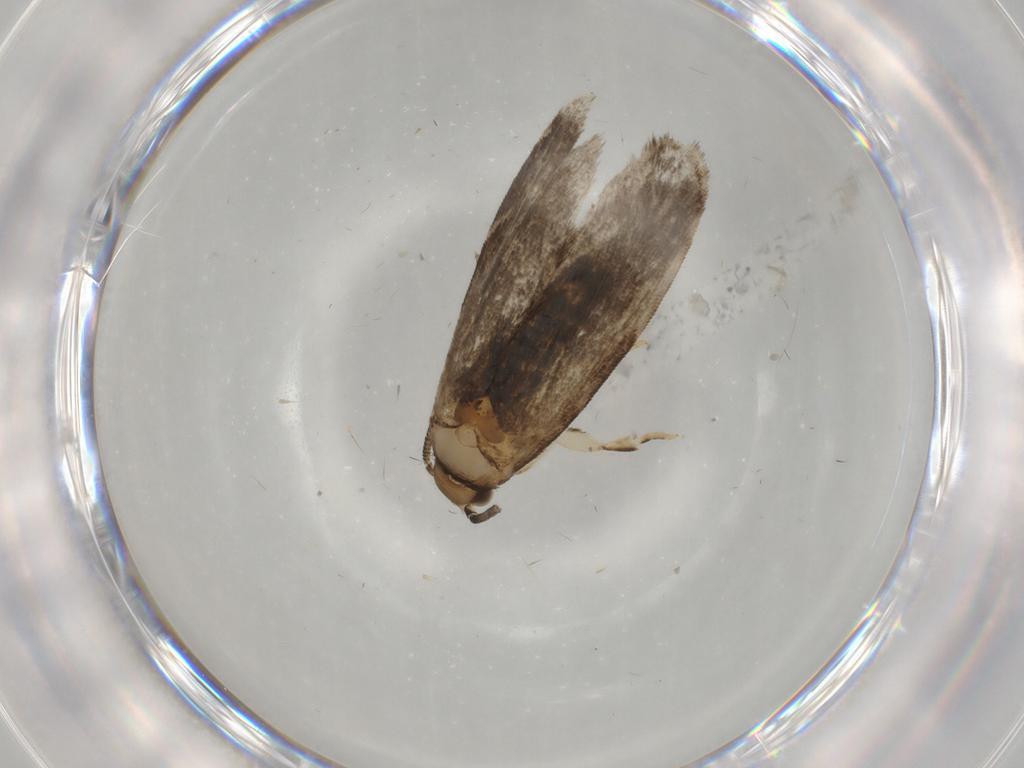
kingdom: Animalia
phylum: Arthropoda
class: Insecta
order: Lepidoptera
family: Dryadaulidae
